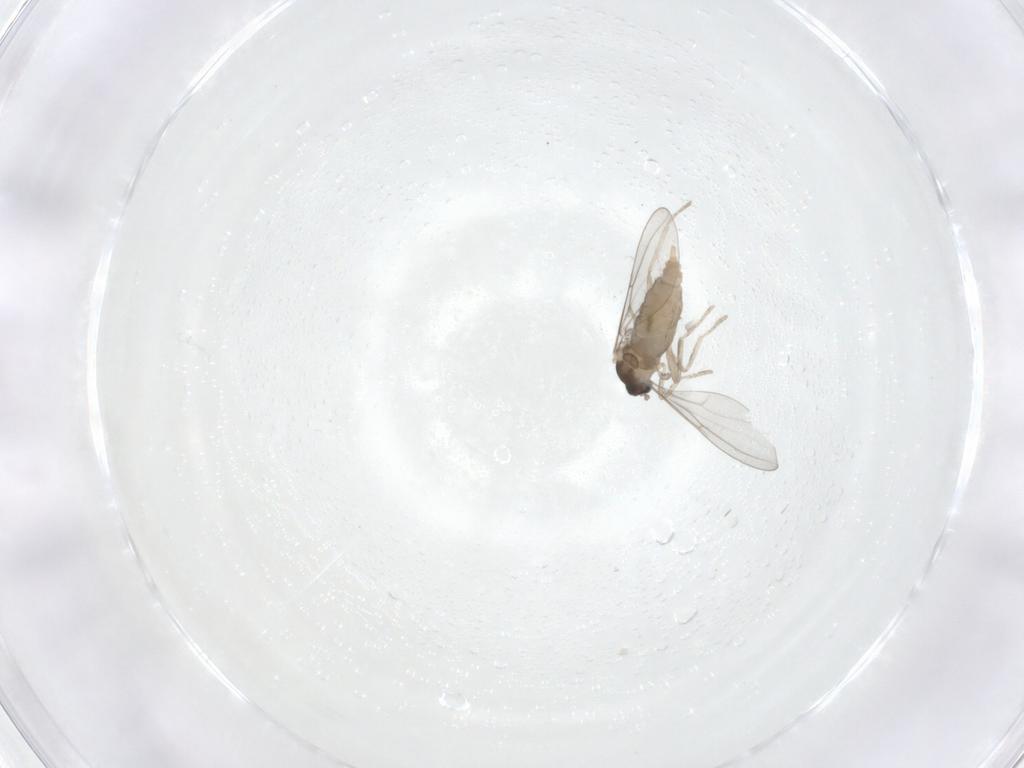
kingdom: Animalia
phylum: Arthropoda
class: Insecta
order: Diptera
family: Cecidomyiidae
